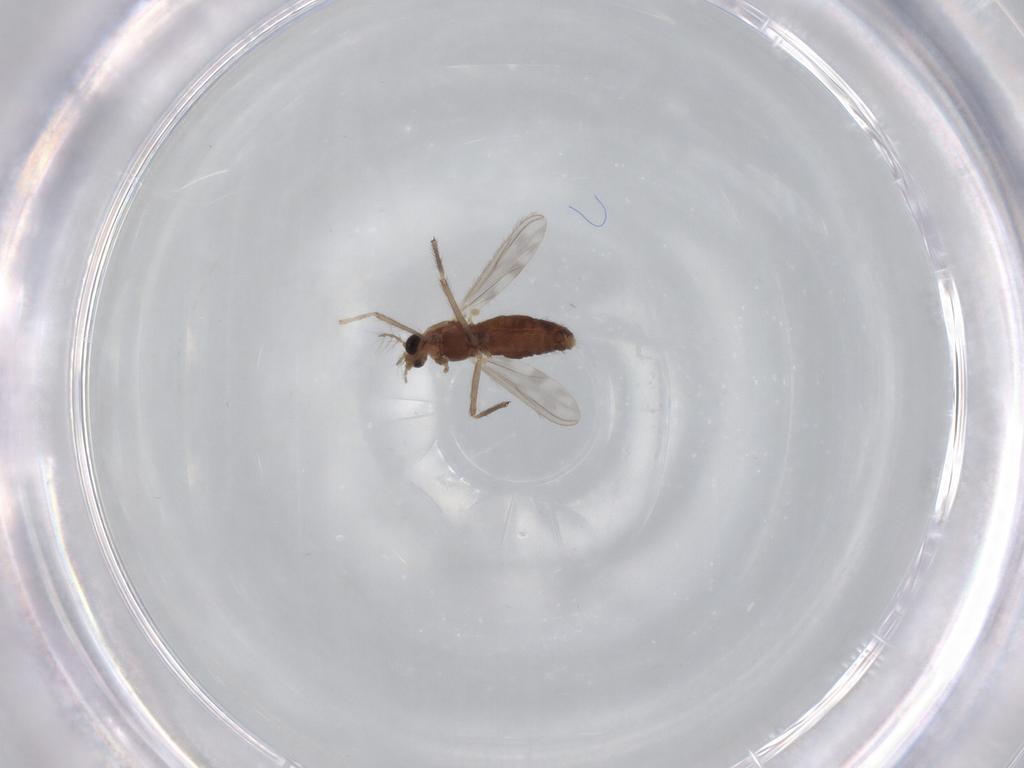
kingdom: Animalia
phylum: Arthropoda
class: Insecta
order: Diptera
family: Chironomidae
